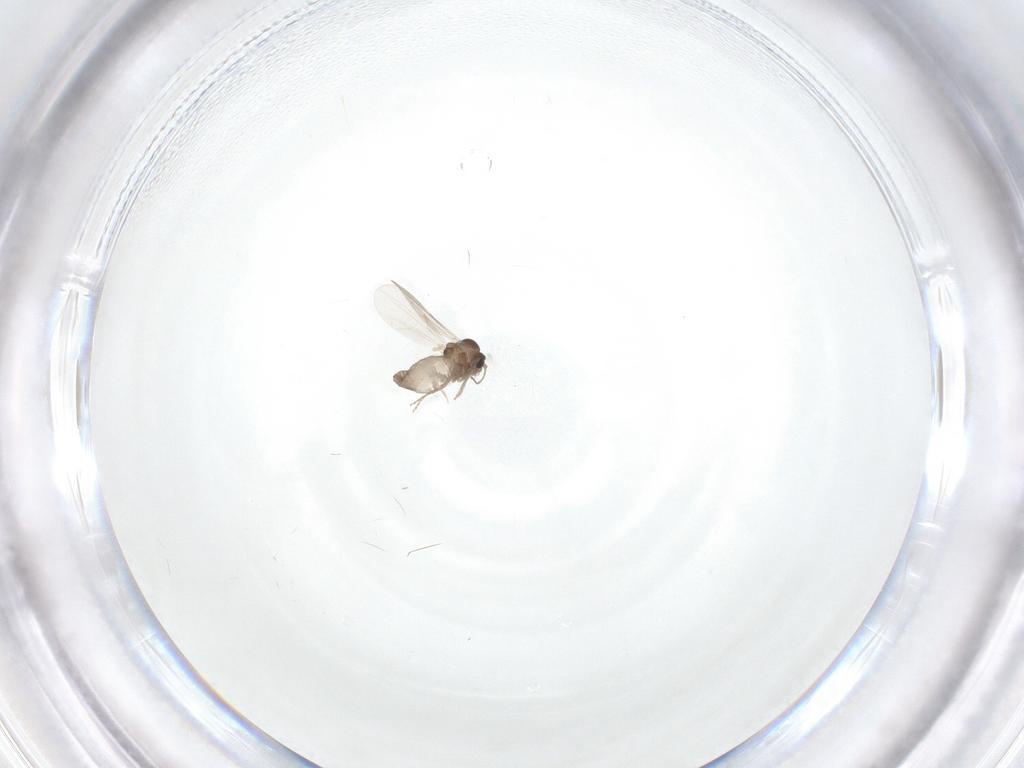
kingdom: Animalia
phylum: Arthropoda
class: Insecta
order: Diptera
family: Ceratopogonidae
